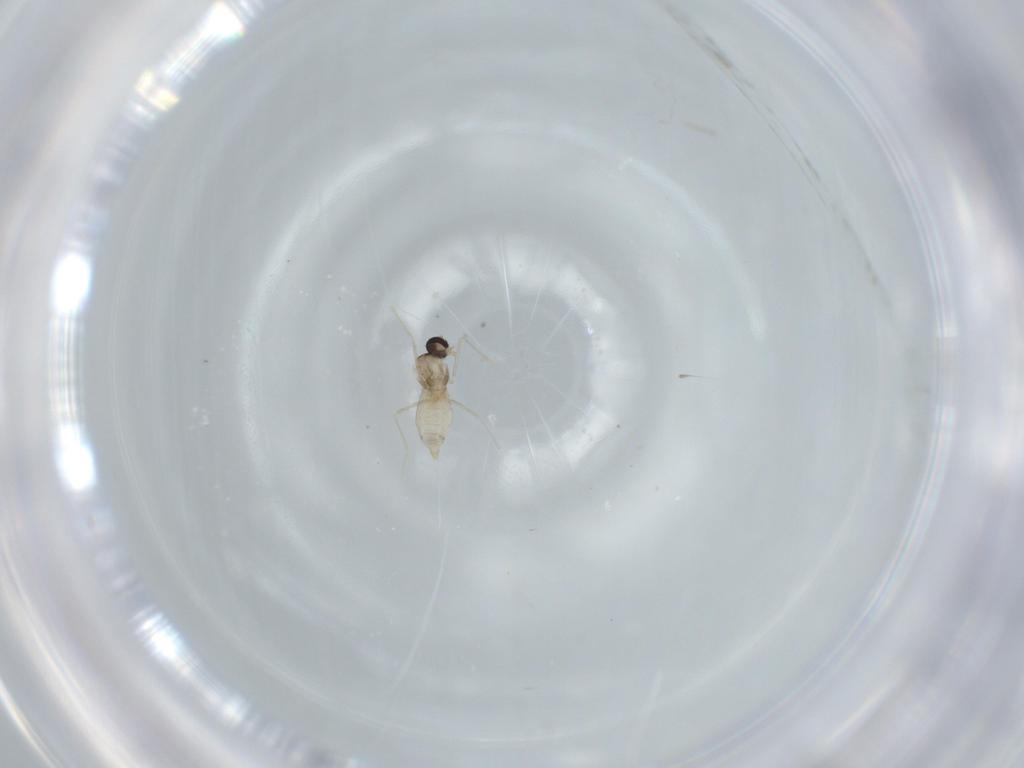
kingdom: Animalia
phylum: Arthropoda
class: Insecta
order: Diptera
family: Cecidomyiidae
